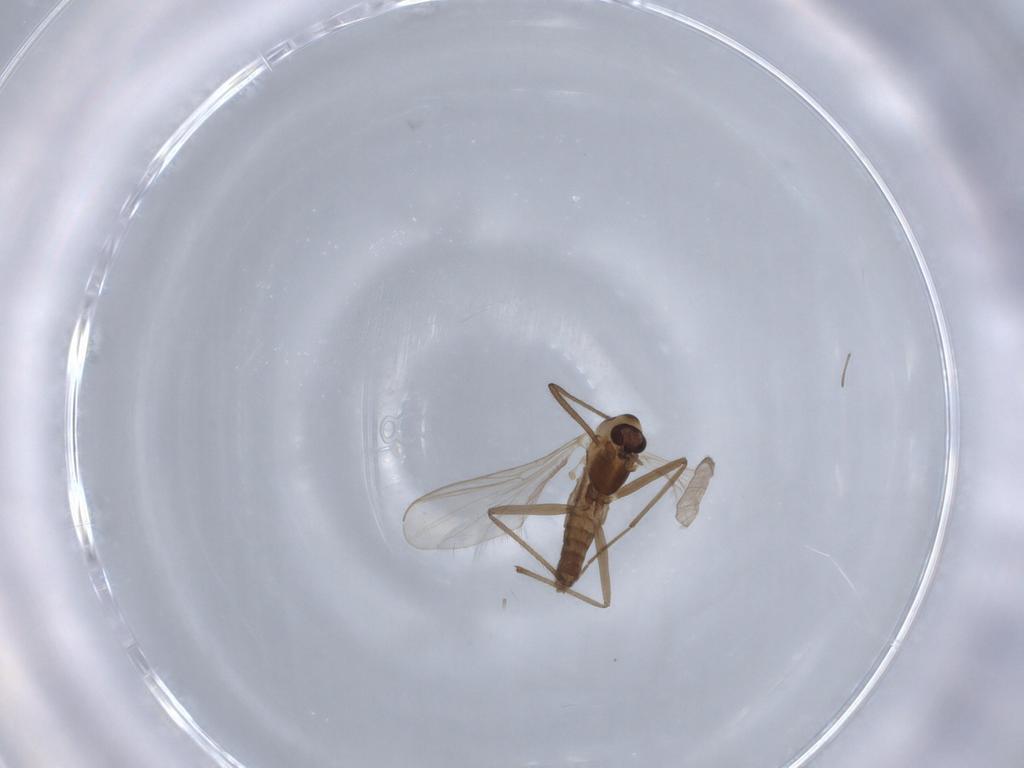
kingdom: Animalia
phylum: Arthropoda
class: Insecta
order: Diptera
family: Chironomidae
